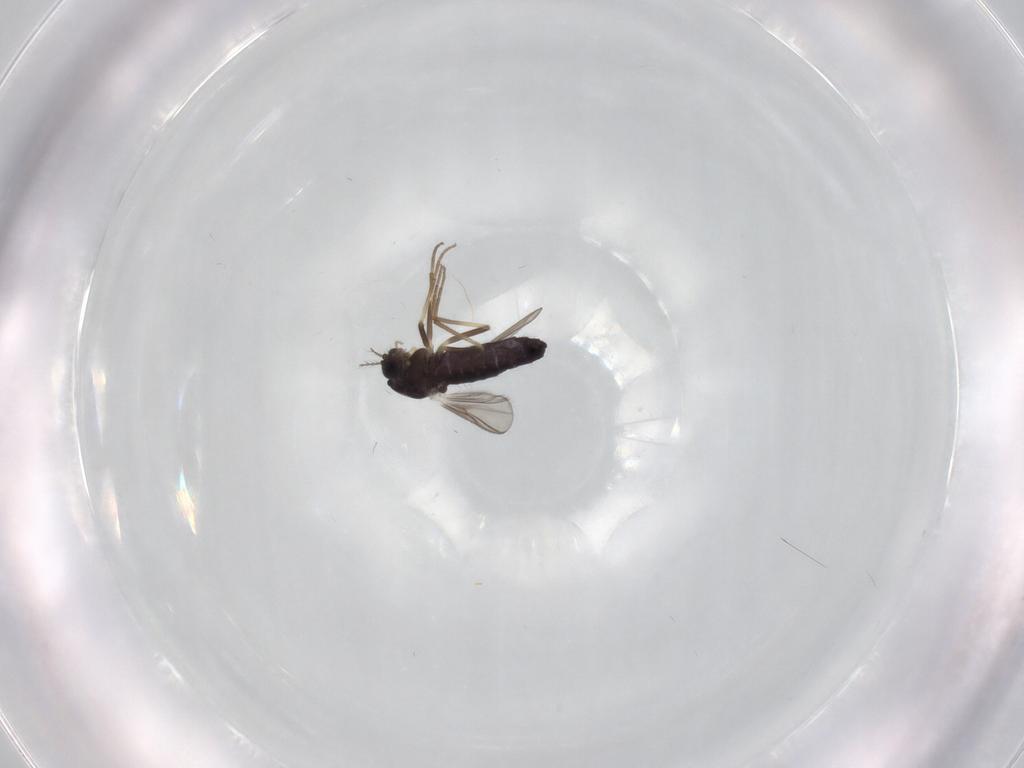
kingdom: Animalia
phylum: Arthropoda
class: Insecta
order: Diptera
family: Chironomidae
